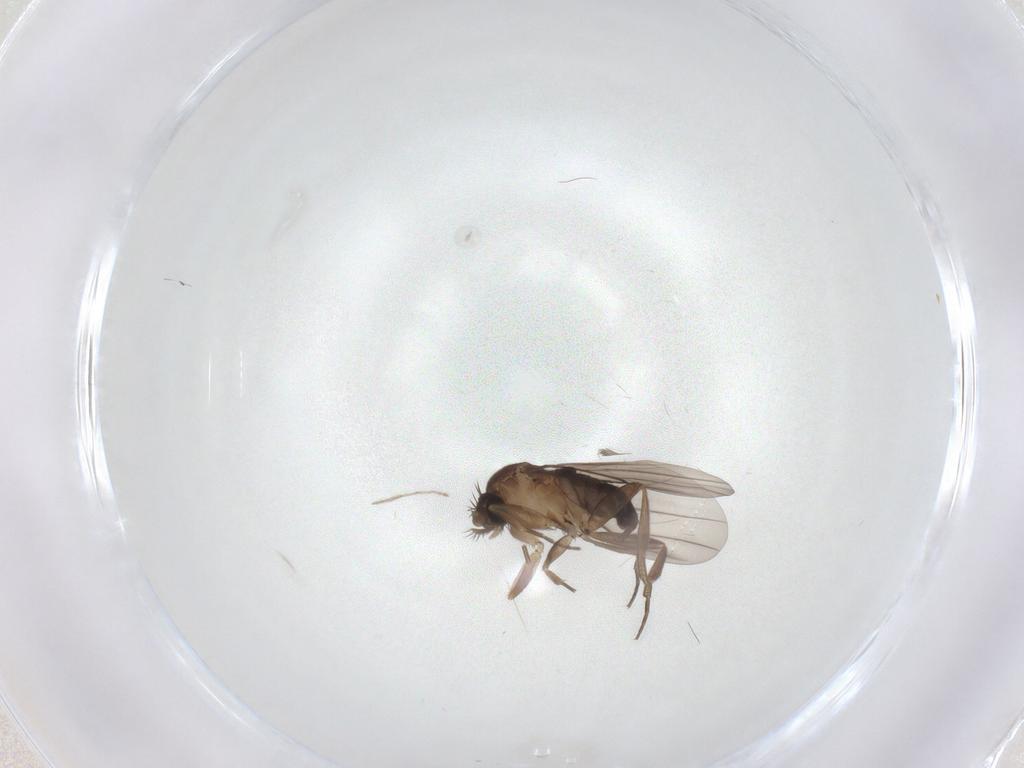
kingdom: Animalia
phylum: Arthropoda
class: Insecta
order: Diptera
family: Phoridae
